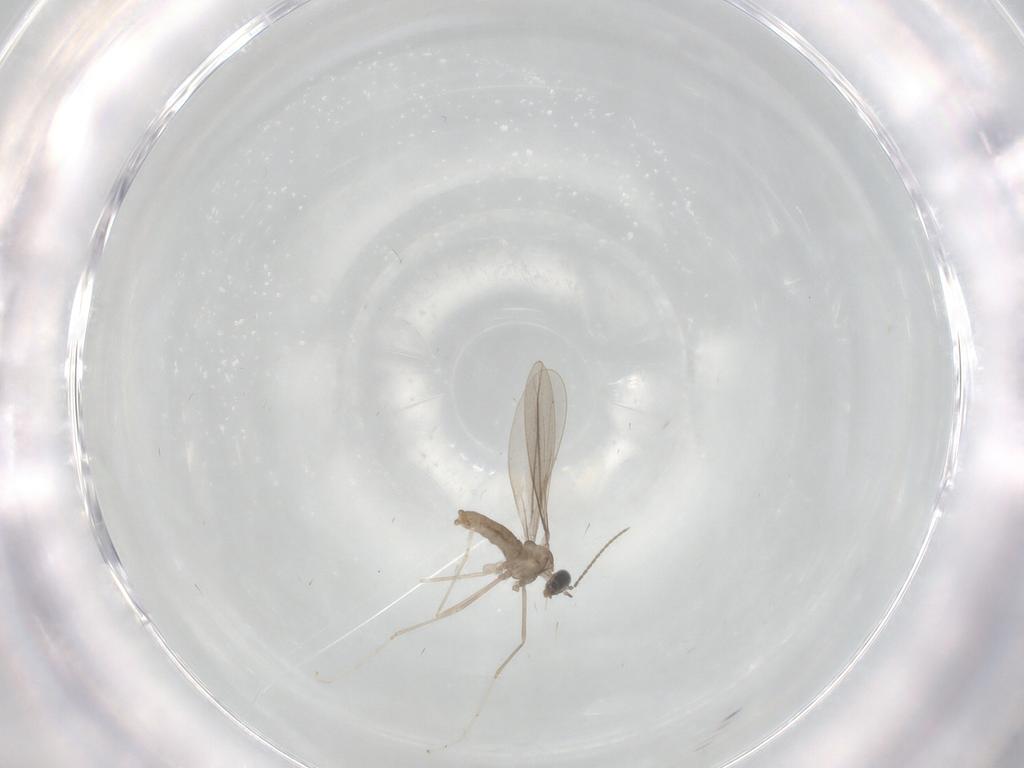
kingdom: Animalia
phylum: Arthropoda
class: Insecta
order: Diptera
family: Cecidomyiidae
